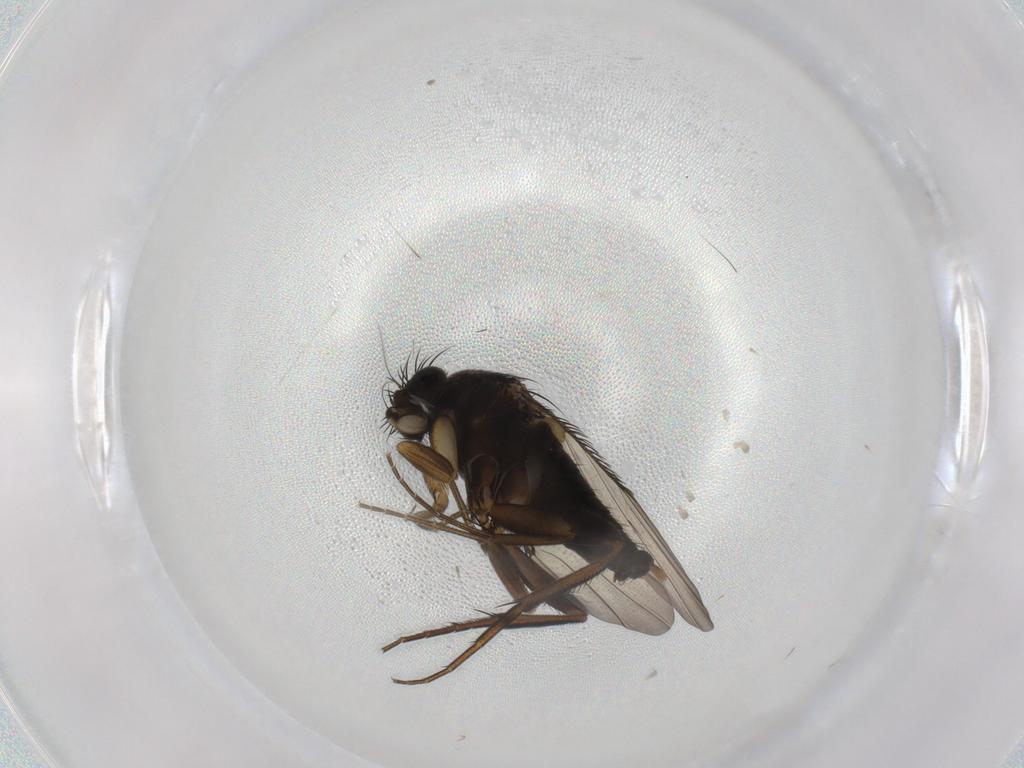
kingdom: Animalia
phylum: Arthropoda
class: Insecta
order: Diptera
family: Phoridae
